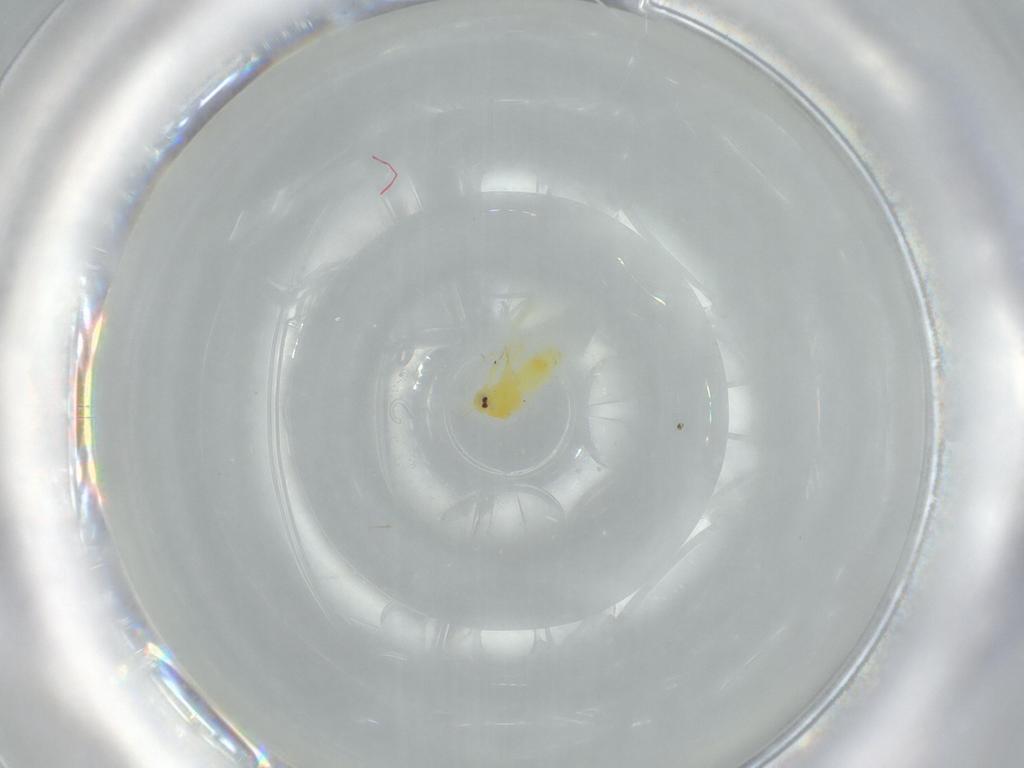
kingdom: Animalia
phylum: Arthropoda
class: Insecta
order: Hemiptera
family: Aleyrodidae
